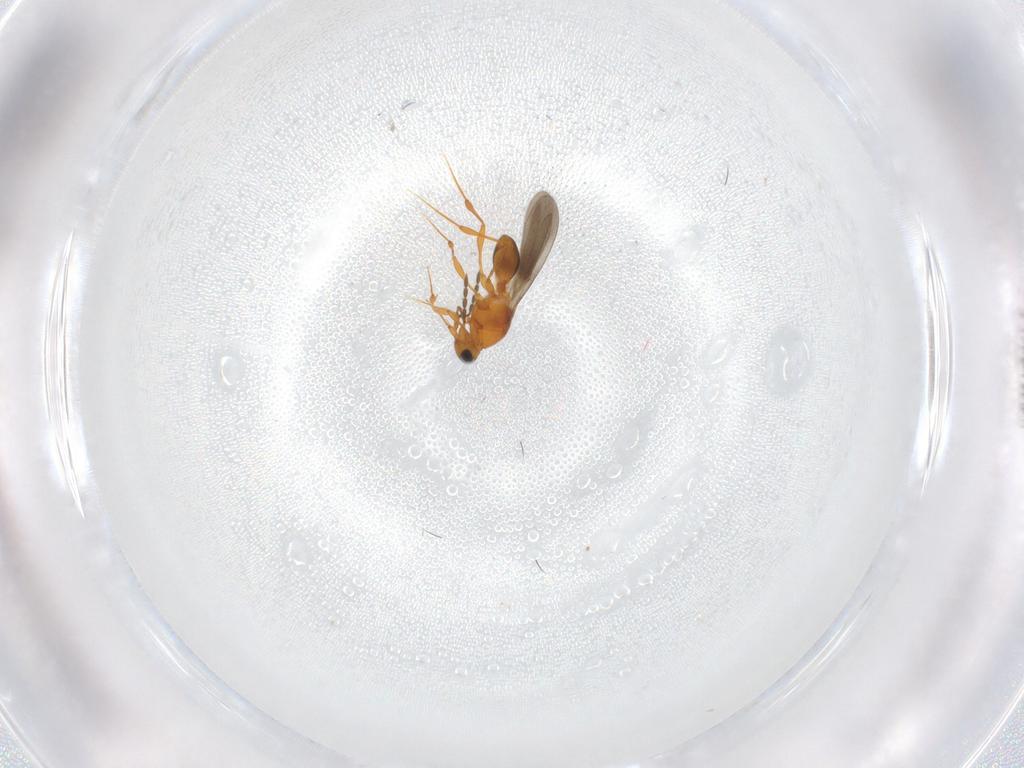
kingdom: Animalia
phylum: Arthropoda
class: Insecta
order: Hymenoptera
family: Platygastridae
